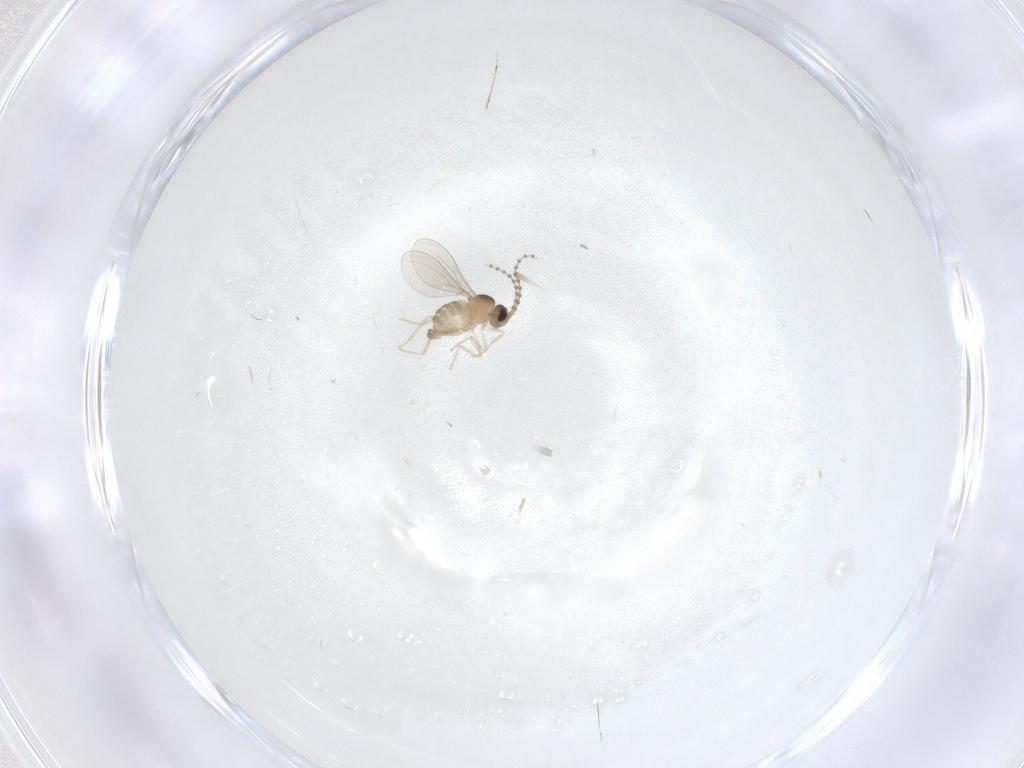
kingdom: Animalia
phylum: Arthropoda
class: Insecta
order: Diptera
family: Cecidomyiidae
